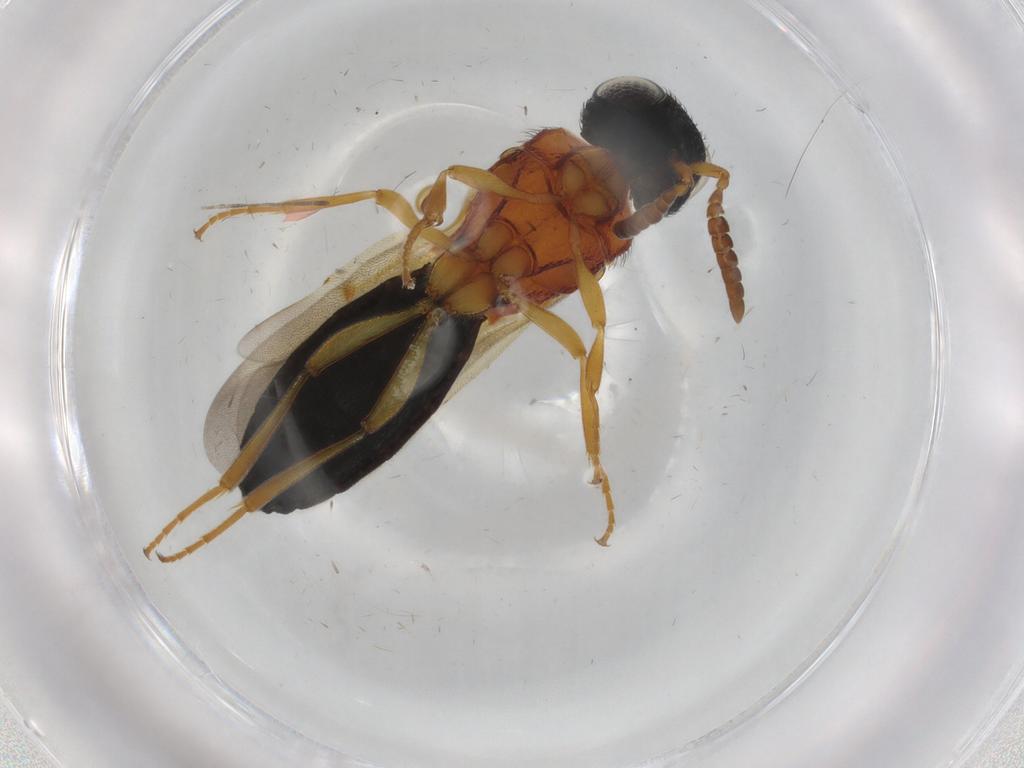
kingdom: Animalia
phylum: Arthropoda
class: Insecta
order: Hymenoptera
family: Scelionidae
